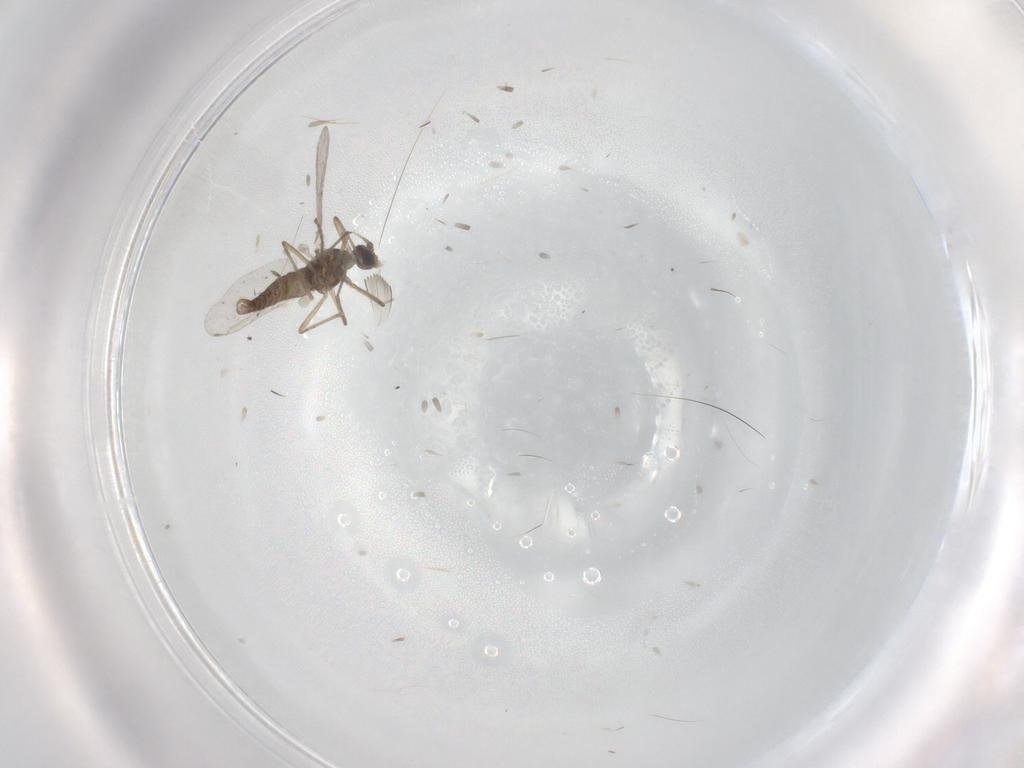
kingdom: Animalia
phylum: Arthropoda
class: Insecta
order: Diptera
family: Cecidomyiidae
